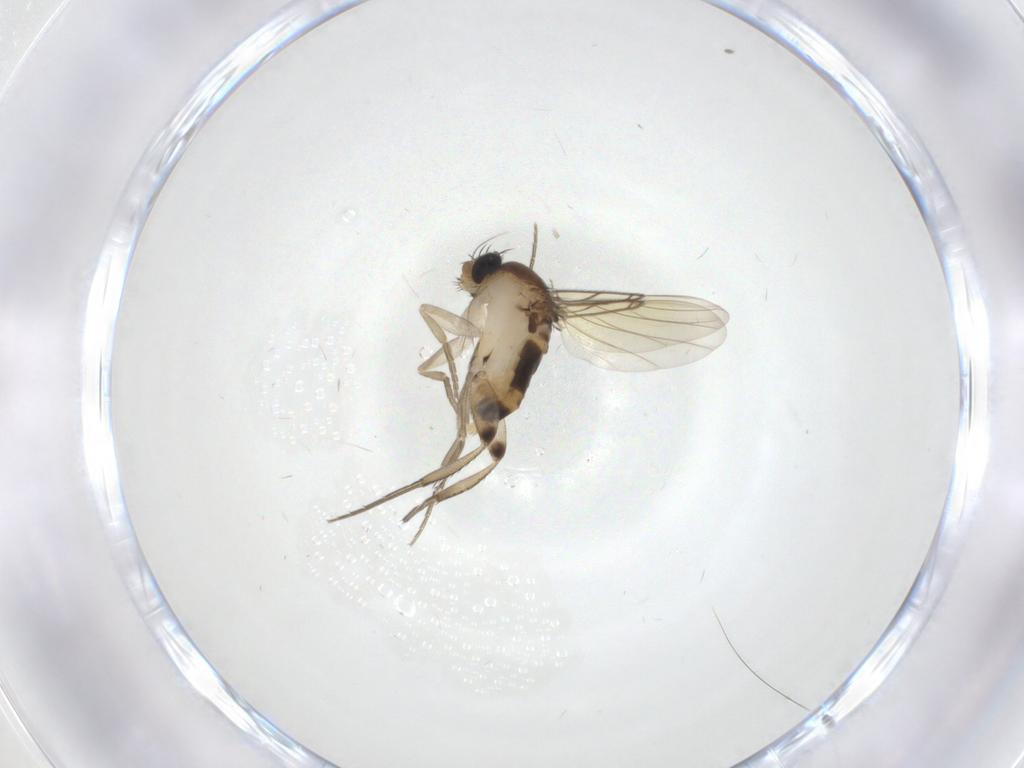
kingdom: Animalia
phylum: Arthropoda
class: Insecta
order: Diptera
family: Phoridae
